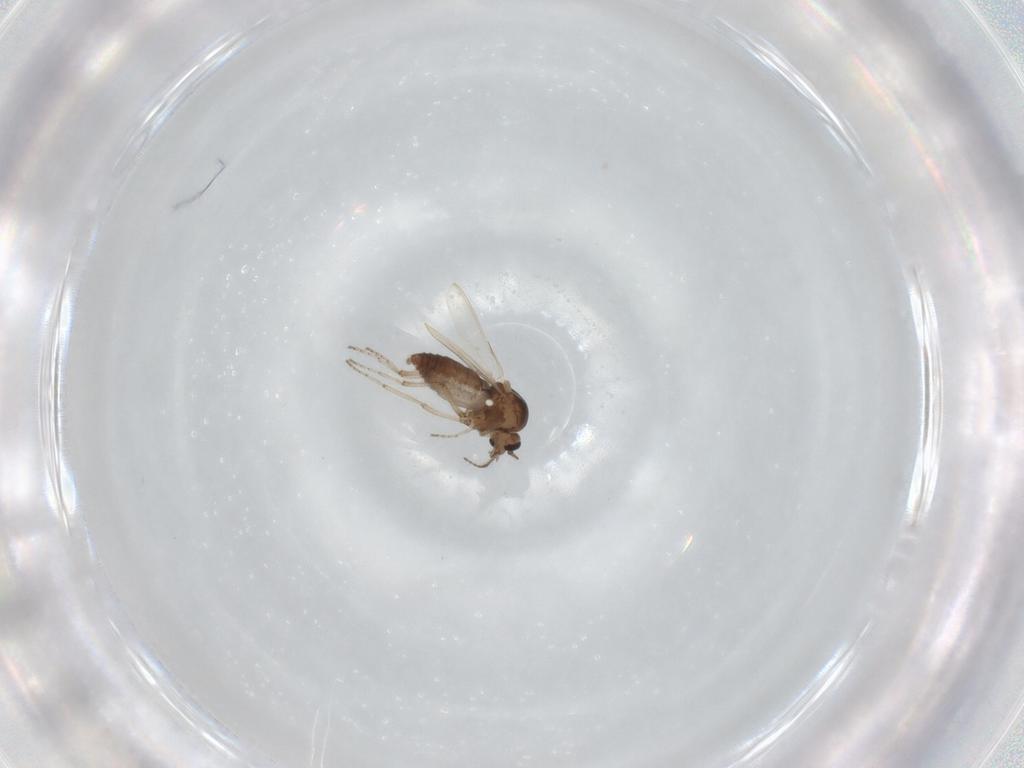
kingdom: Animalia
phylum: Arthropoda
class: Insecta
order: Diptera
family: Ceratopogonidae
